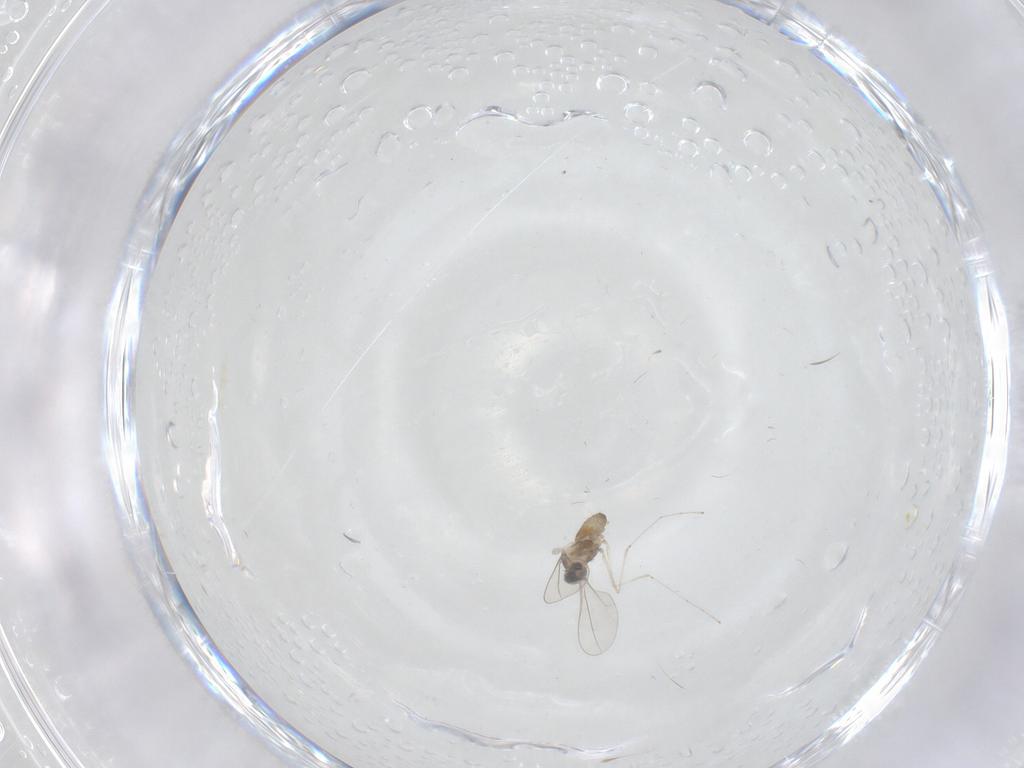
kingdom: Animalia
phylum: Arthropoda
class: Insecta
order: Diptera
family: Cecidomyiidae
